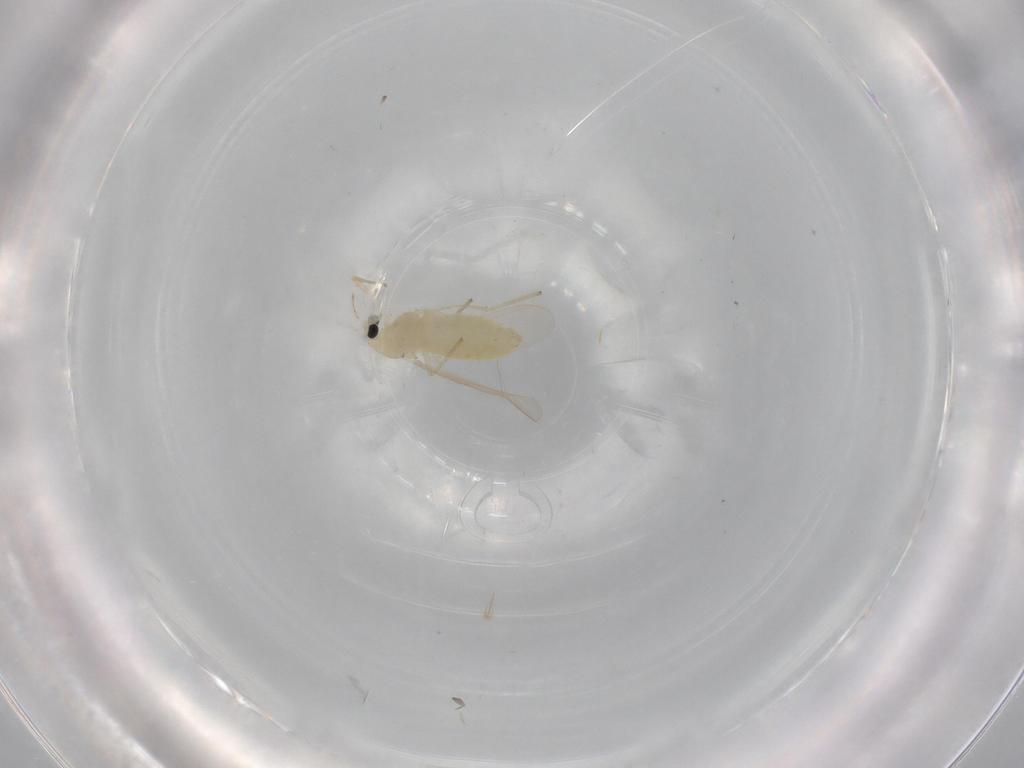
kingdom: Animalia
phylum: Arthropoda
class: Insecta
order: Diptera
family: Chironomidae
